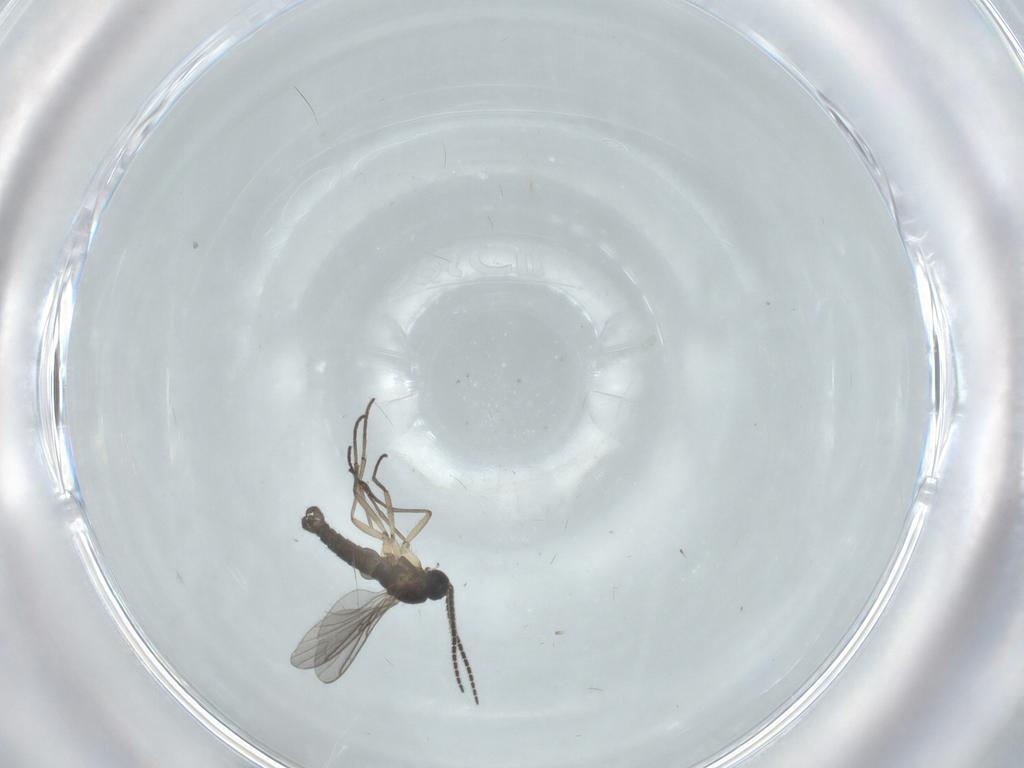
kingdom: Animalia
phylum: Arthropoda
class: Insecta
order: Diptera
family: Sciaridae
